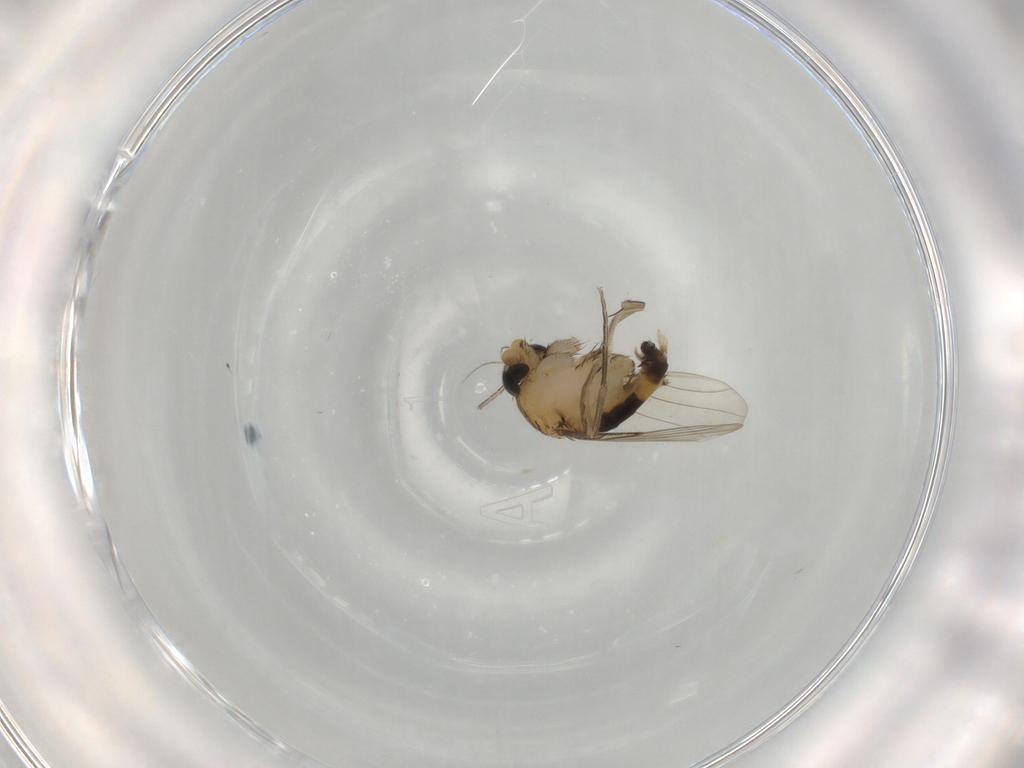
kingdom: Animalia
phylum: Arthropoda
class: Insecta
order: Diptera
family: Phoridae
